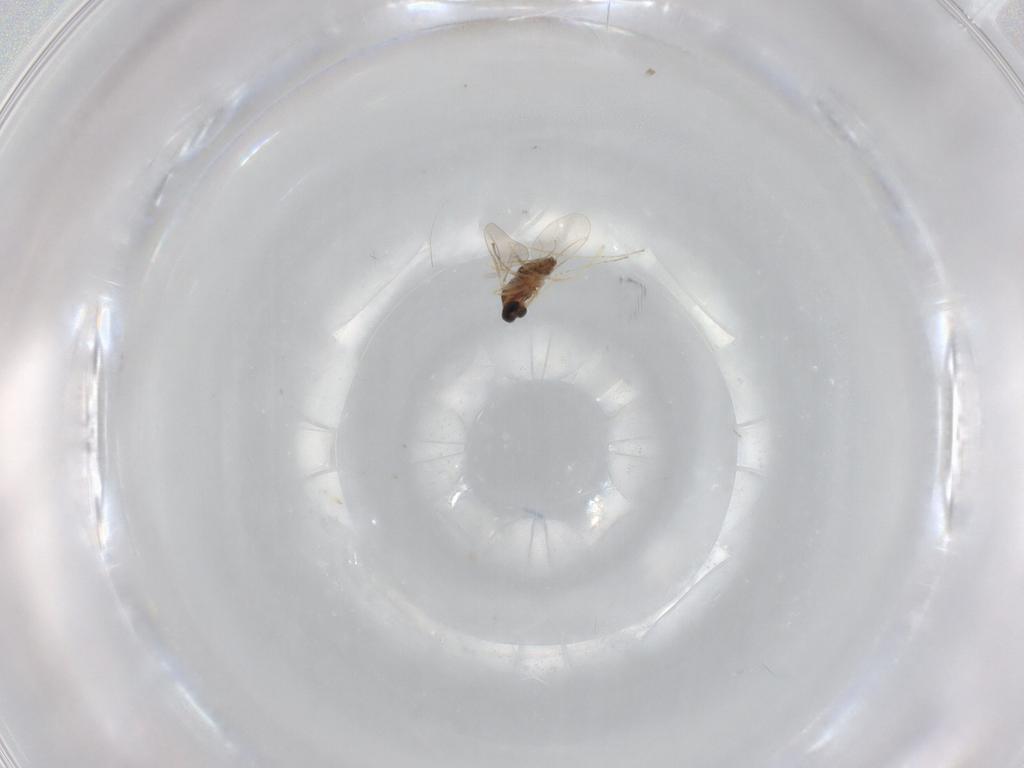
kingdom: Animalia
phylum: Arthropoda
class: Insecta
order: Diptera
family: Cecidomyiidae
